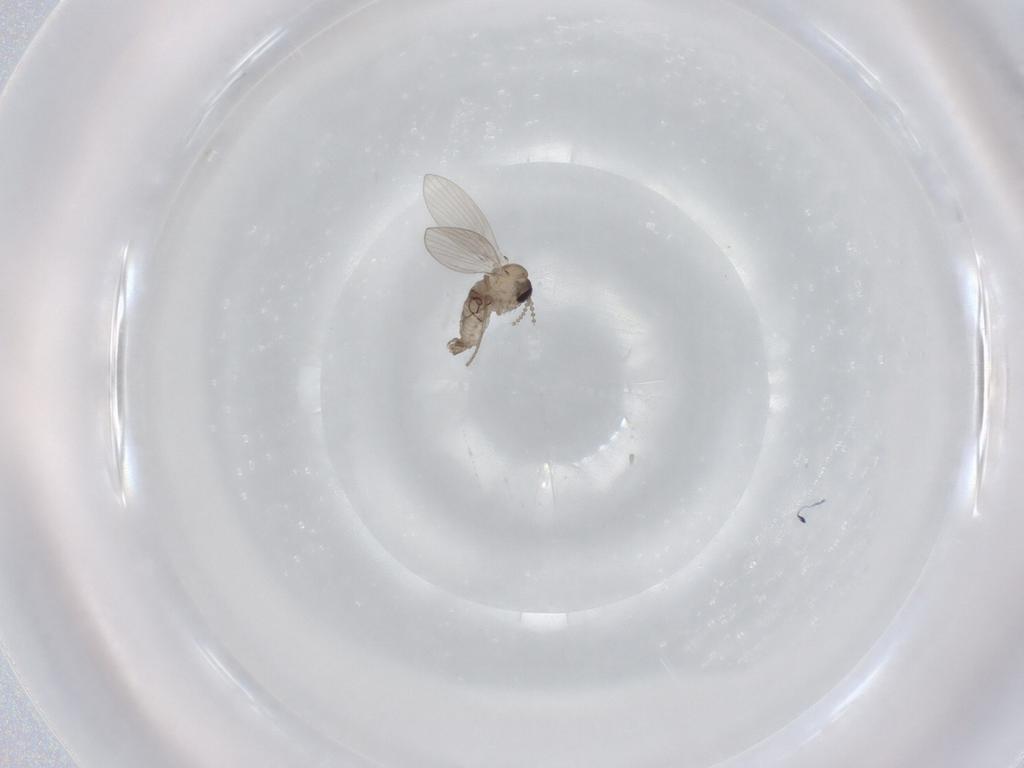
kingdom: Animalia
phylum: Arthropoda
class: Insecta
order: Diptera
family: Psychodidae
